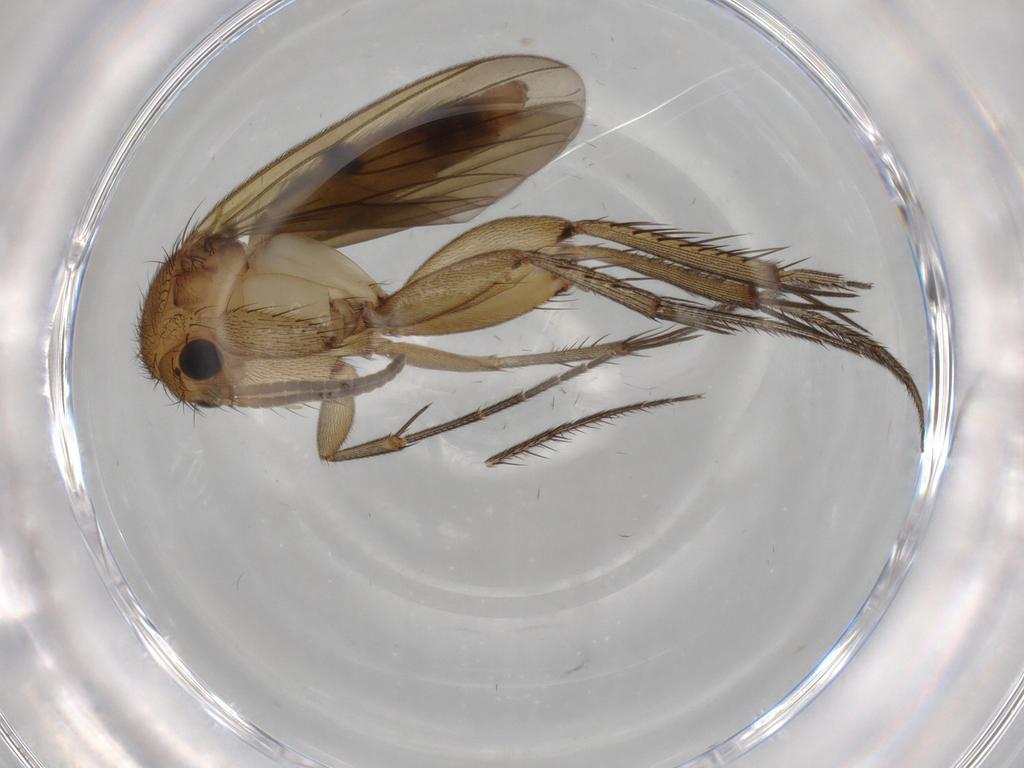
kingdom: Animalia
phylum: Arthropoda
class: Insecta
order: Diptera
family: Mycetophilidae
